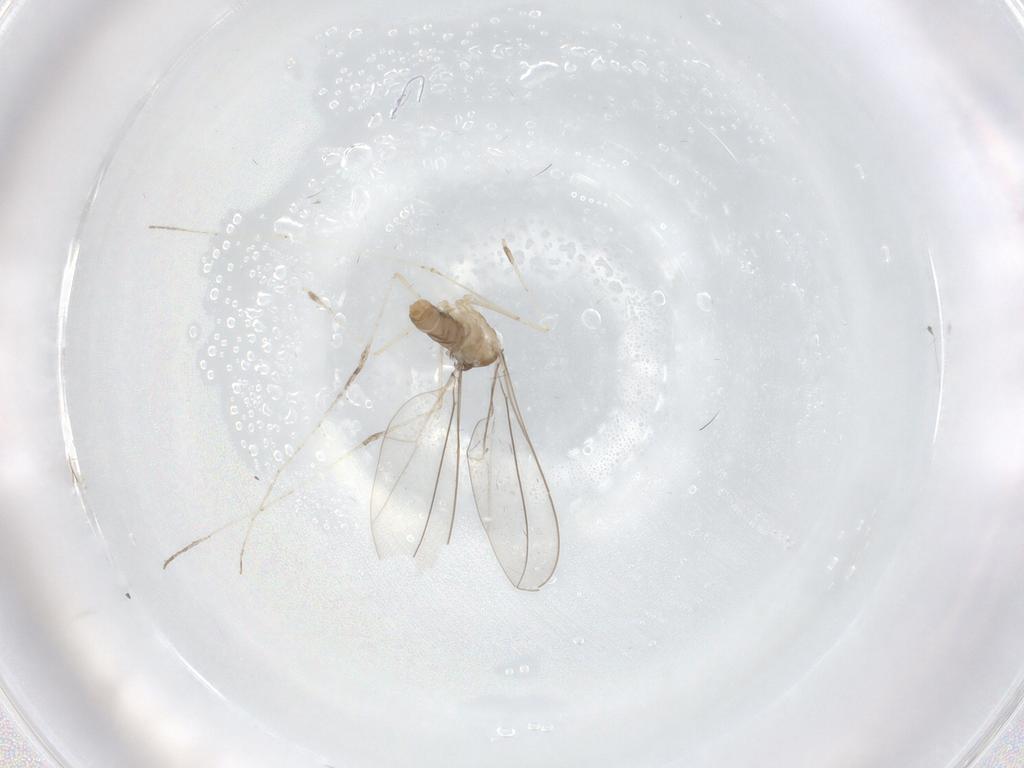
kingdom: Animalia
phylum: Arthropoda
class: Insecta
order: Diptera
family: Cecidomyiidae
